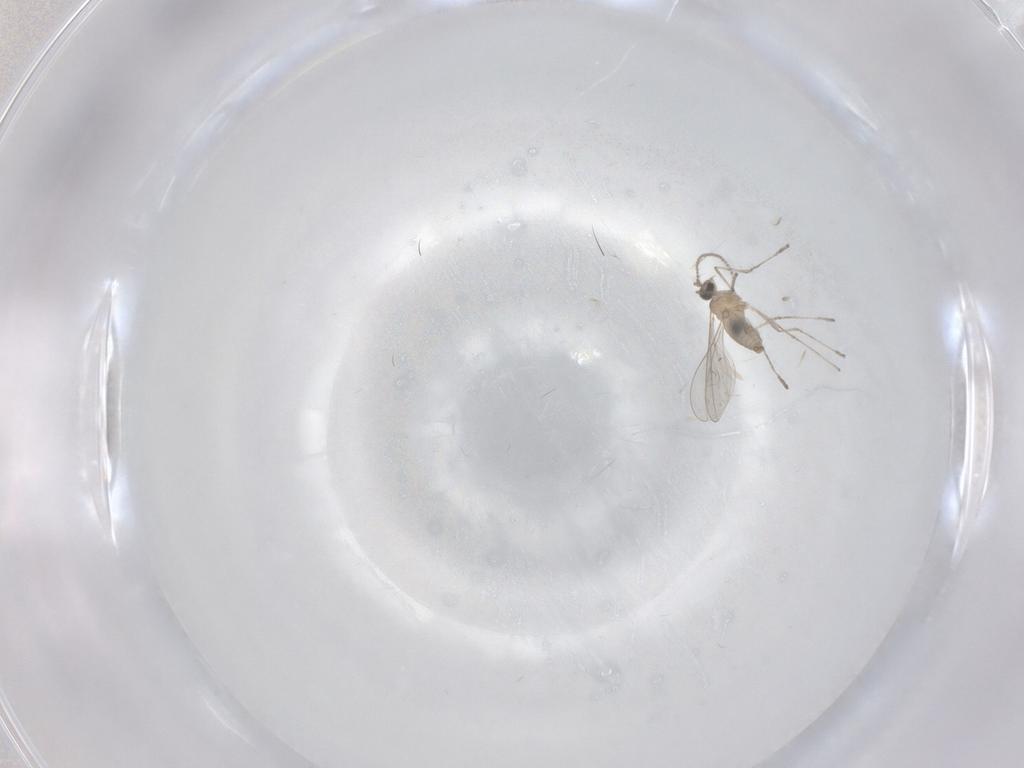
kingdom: Animalia
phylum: Arthropoda
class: Insecta
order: Diptera
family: Cecidomyiidae
